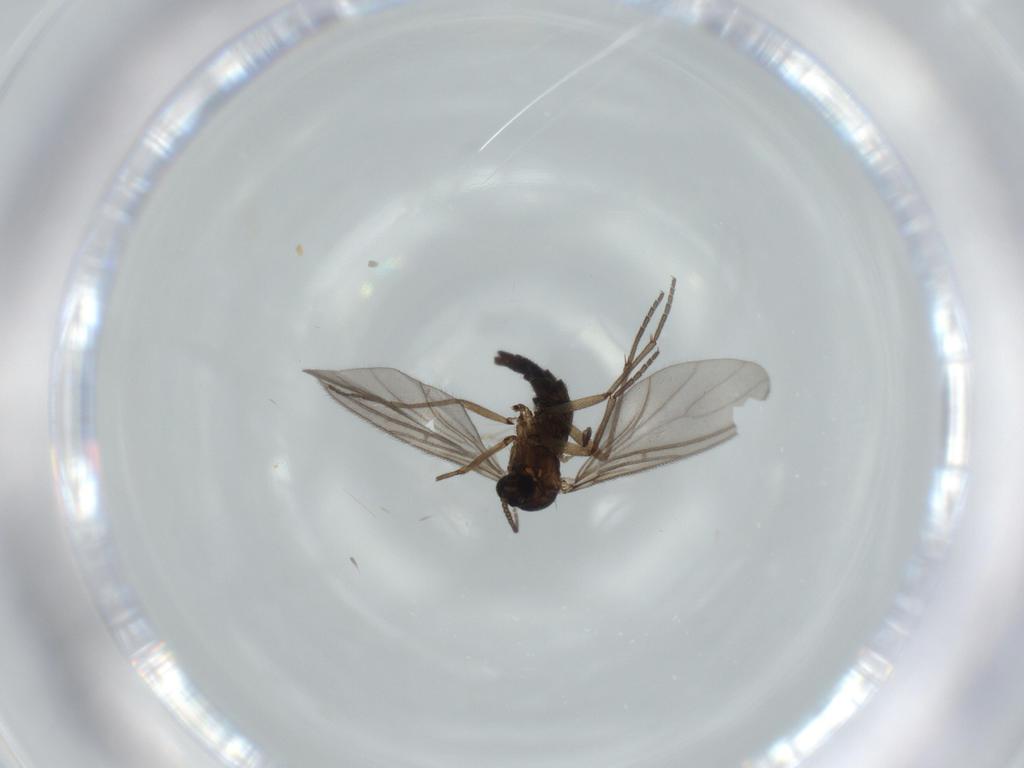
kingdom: Animalia
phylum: Arthropoda
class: Insecta
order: Diptera
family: Sciaridae
